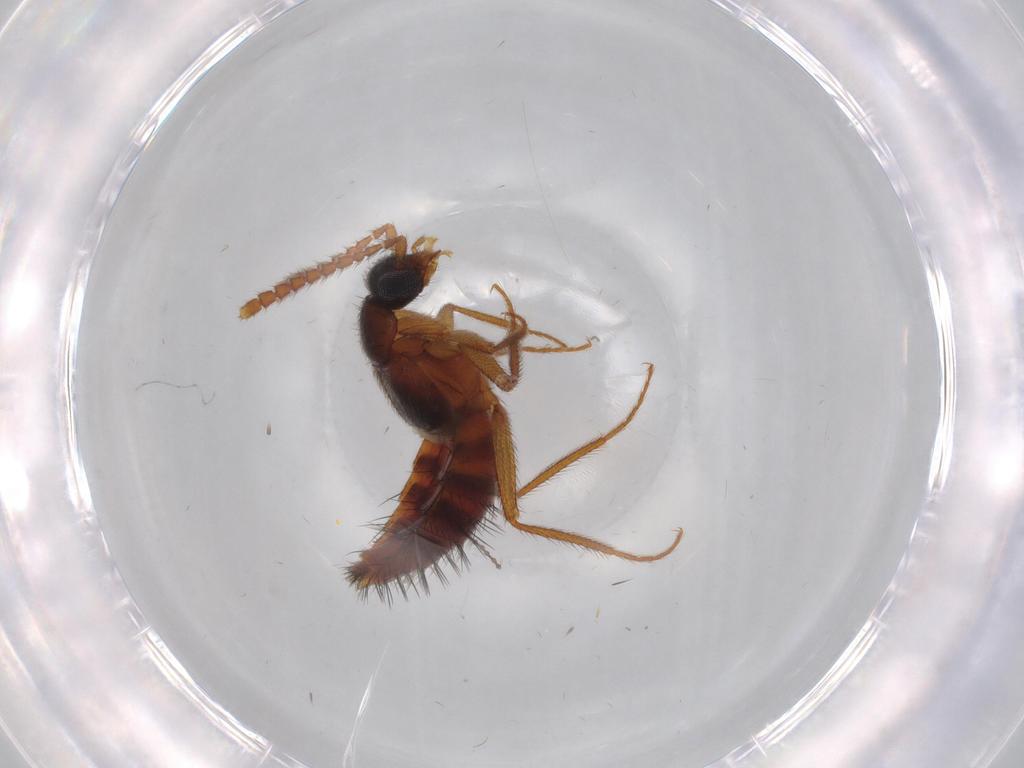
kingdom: Animalia
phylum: Arthropoda
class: Insecta
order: Coleoptera
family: Staphylinidae
